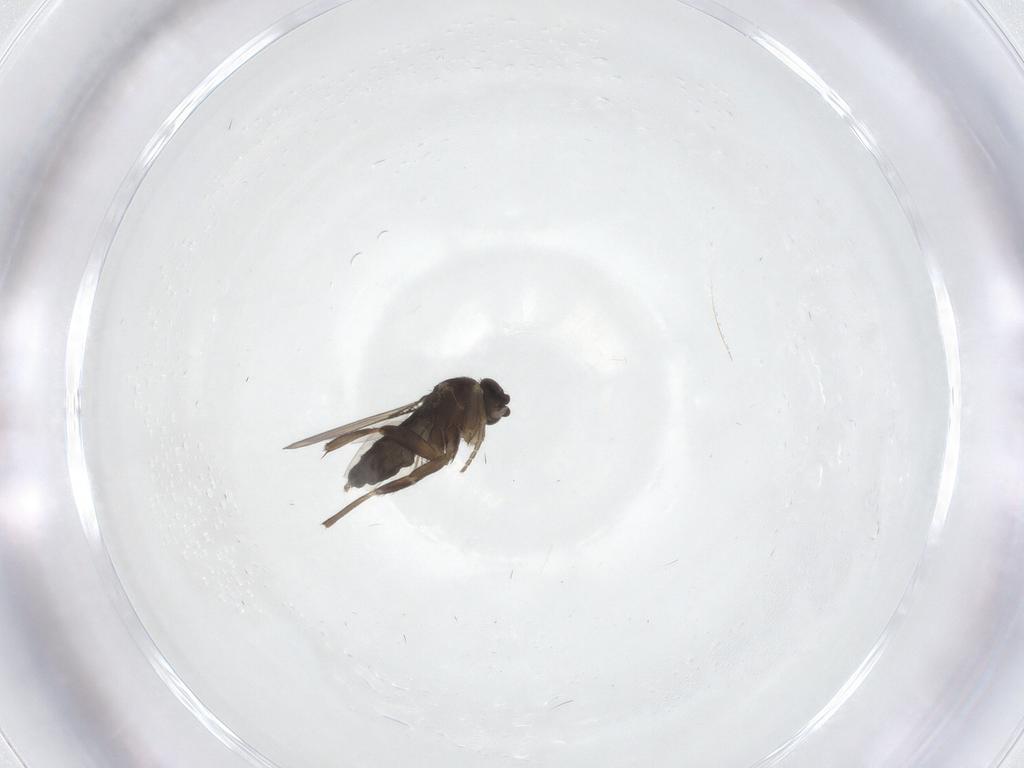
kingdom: Animalia
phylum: Arthropoda
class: Insecta
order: Diptera
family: Phoridae
